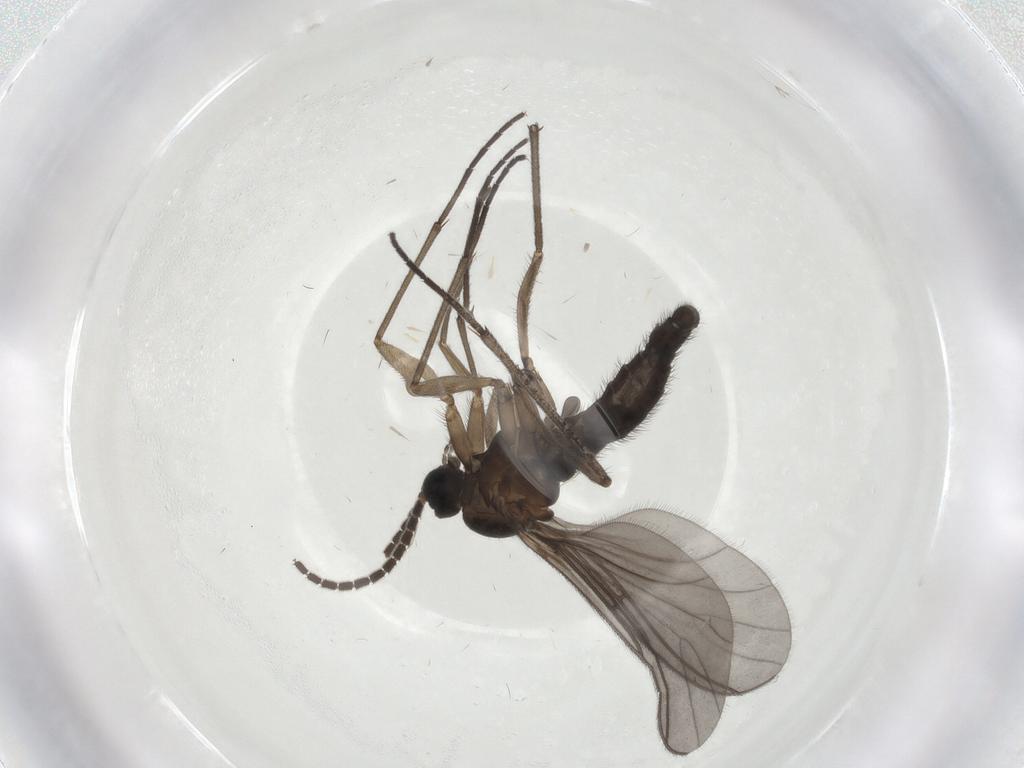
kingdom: Animalia
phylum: Arthropoda
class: Insecta
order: Diptera
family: Sciaridae
